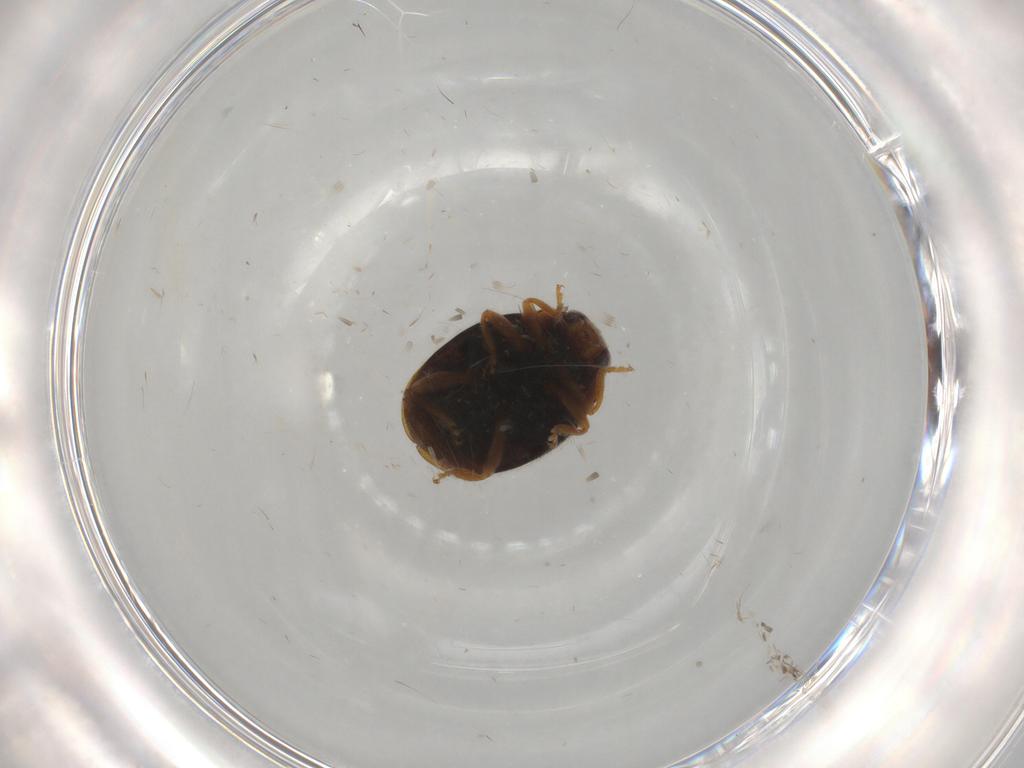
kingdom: Animalia
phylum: Arthropoda
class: Insecta
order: Coleoptera
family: Coccinellidae
